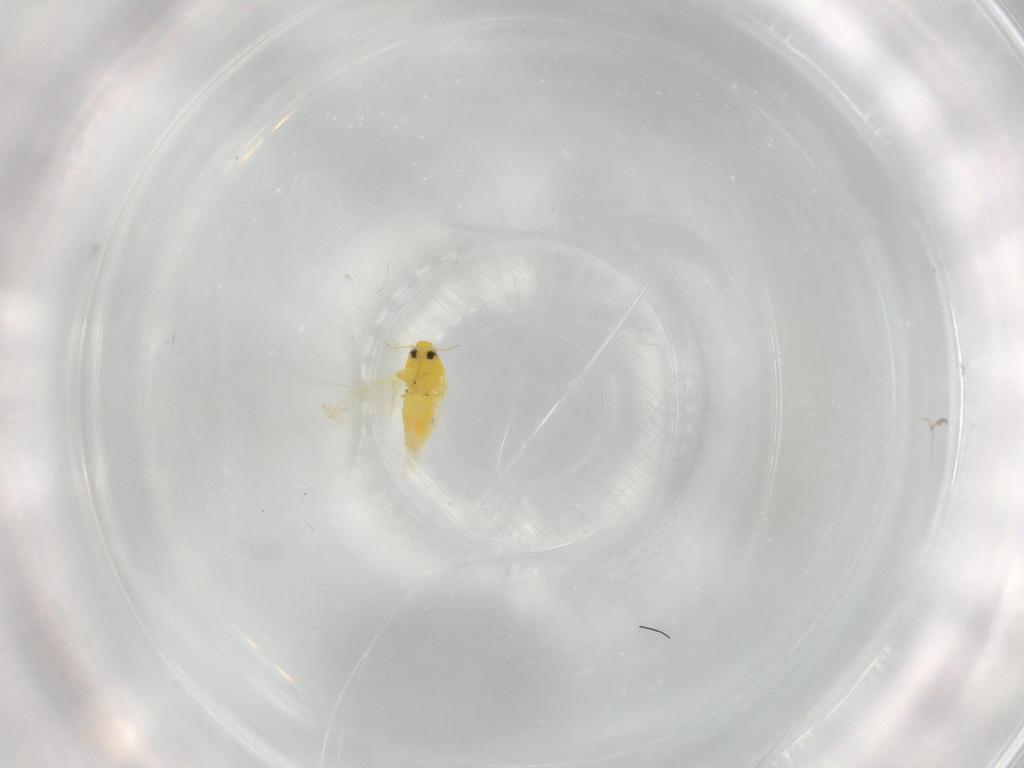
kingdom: Animalia
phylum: Arthropoda
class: Insecta
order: Hemiptera
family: Aleyrodidae
